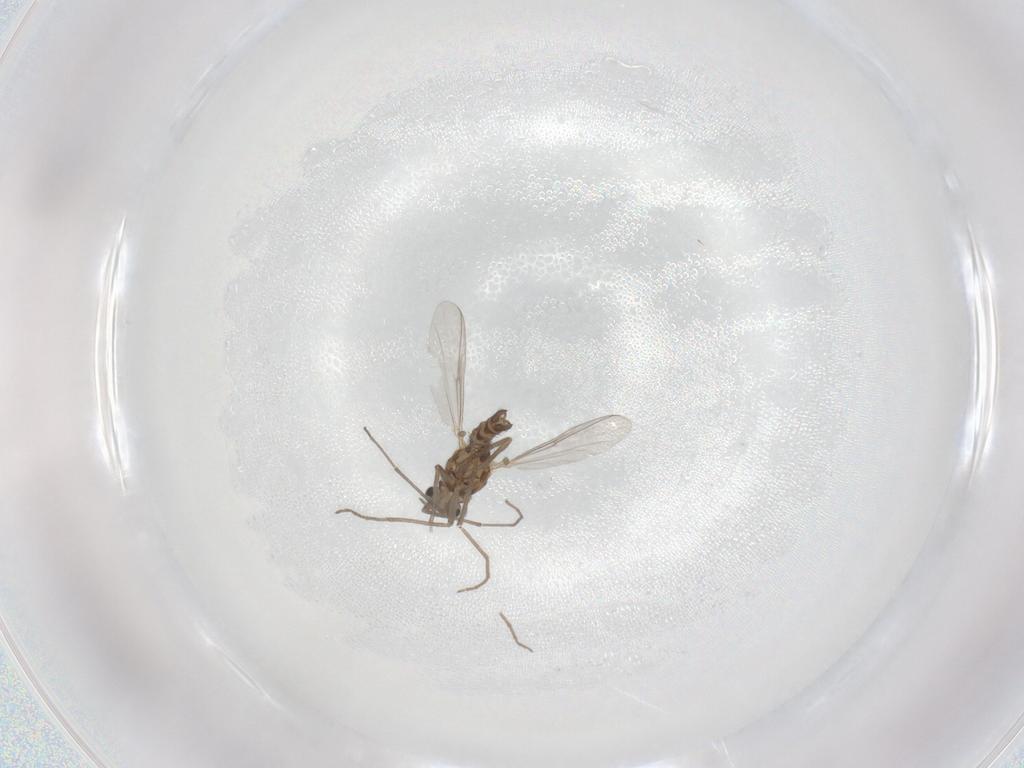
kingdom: Animalia
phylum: Arthropoda
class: Insecta
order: Diptera
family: Chironomidae
